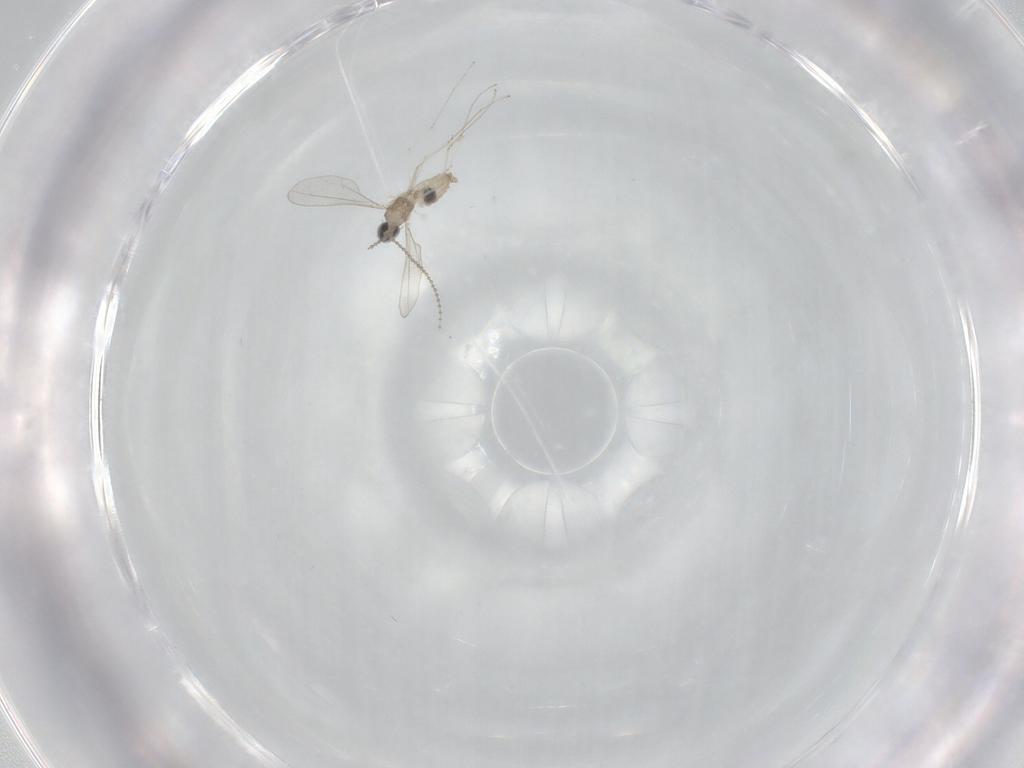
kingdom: Animalia
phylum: Arthropoda
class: Insecta
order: Diptera
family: Cecidomyiidae
